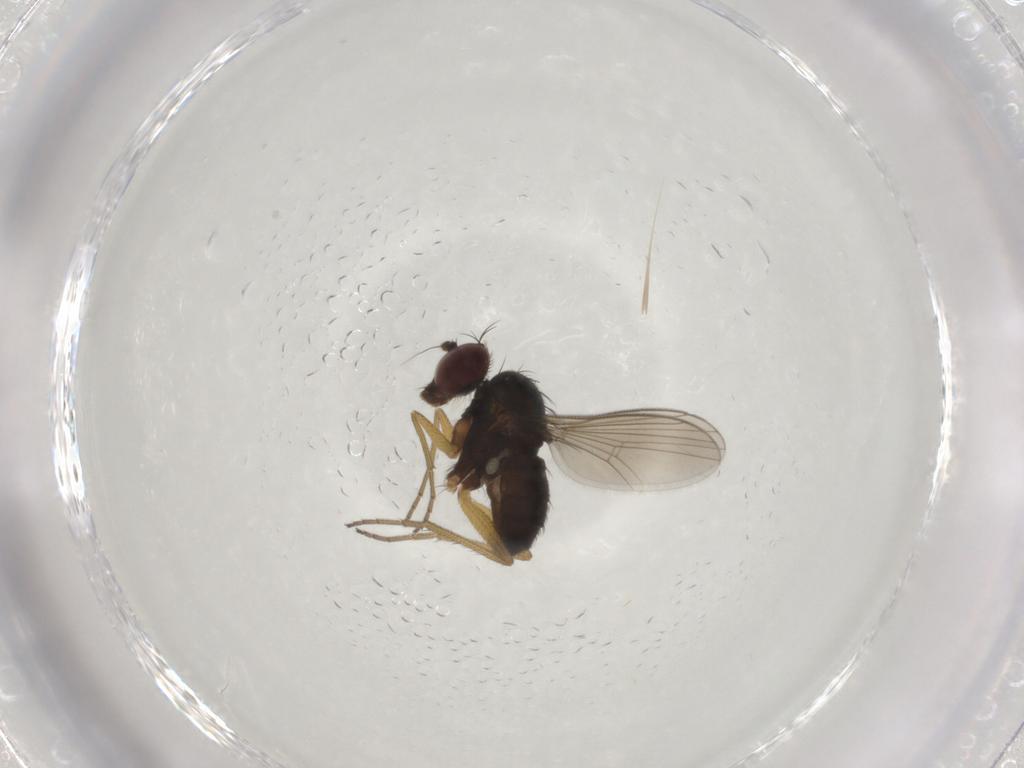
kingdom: Animalia
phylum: Arthropoda
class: Insecta
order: Diptera
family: Dolichopodidae
